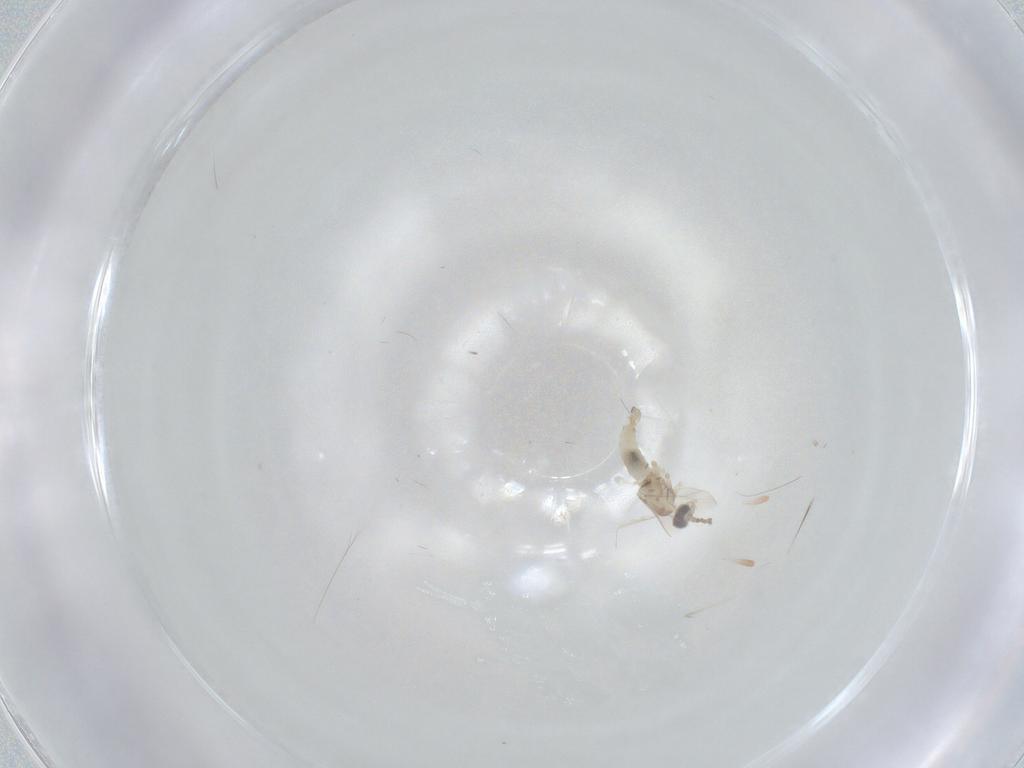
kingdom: Animalia
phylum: Arthropoda
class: Insecta
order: Diptera
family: Cecidomyiidae
